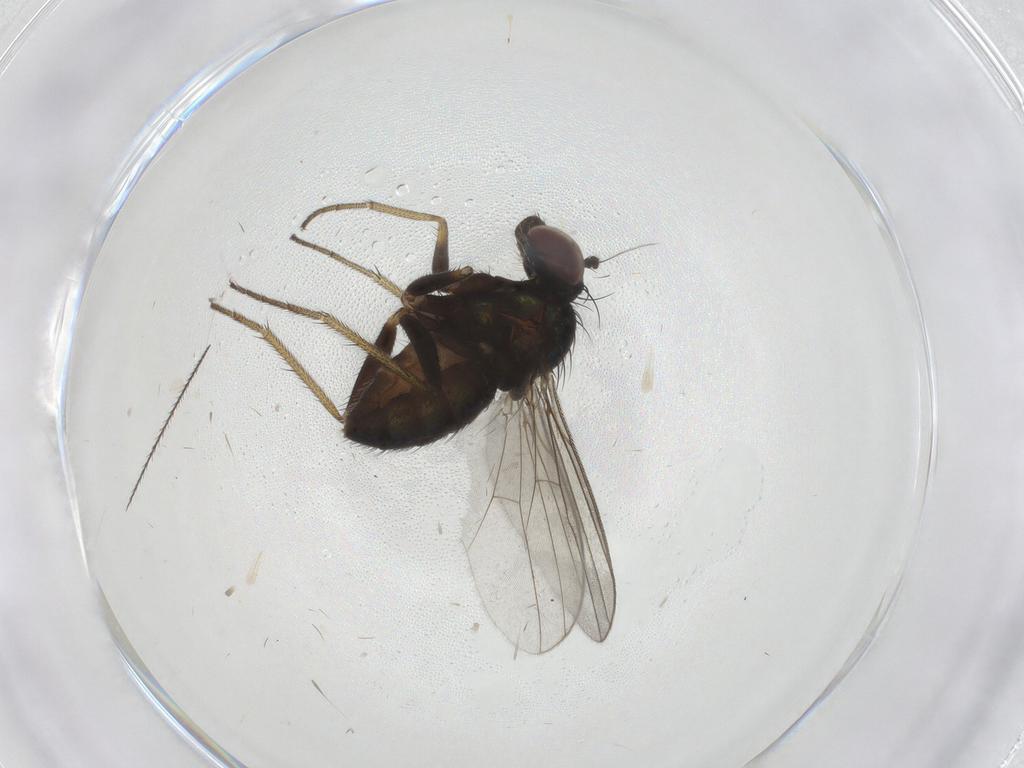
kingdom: Animalia
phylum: Arthropoda
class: Insecta
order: Diptera
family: Dolichopodidae
